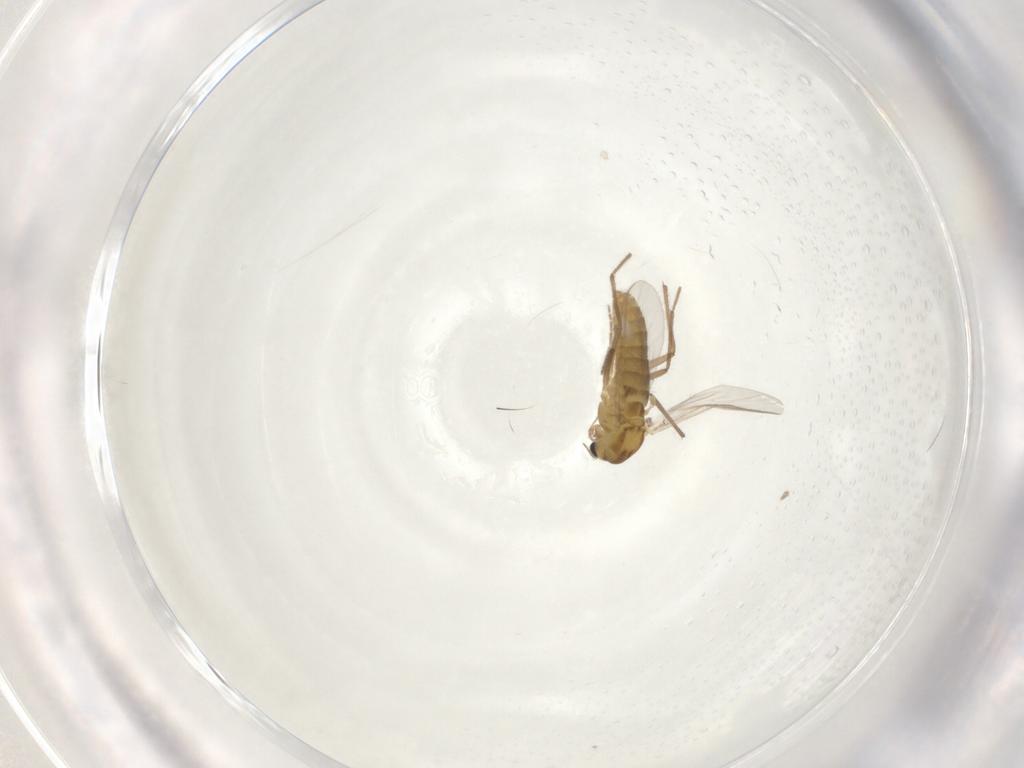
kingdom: Animalia
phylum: Arthropoda
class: Insecta
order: Diptera
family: Chironomidae
